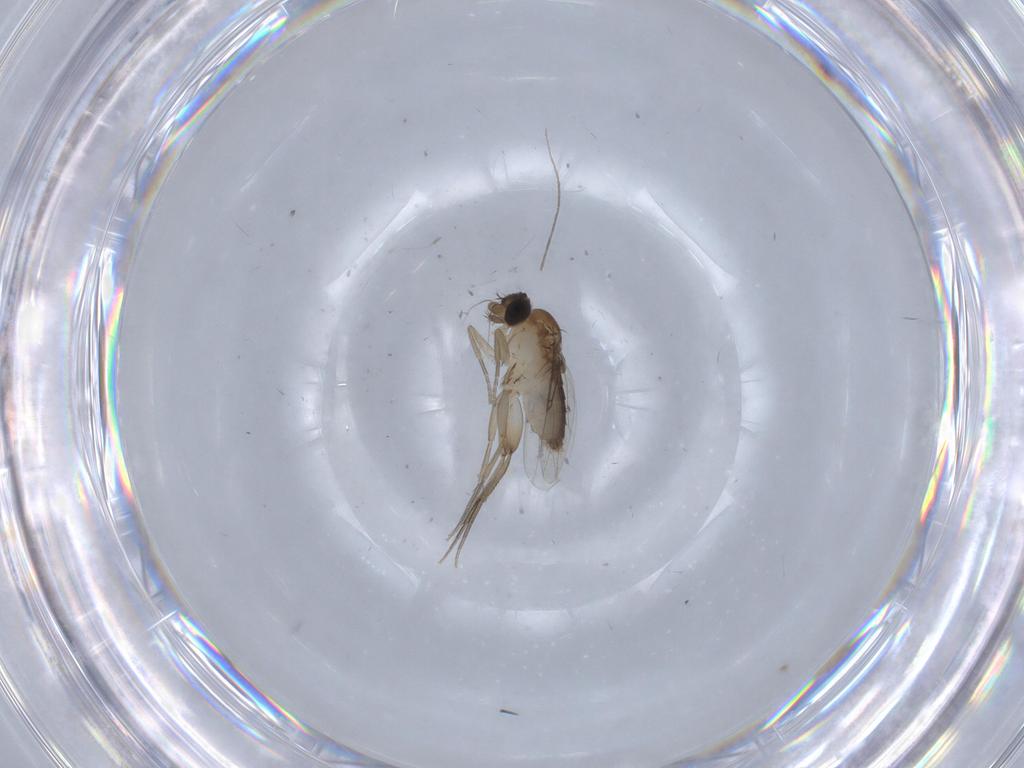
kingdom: Animalia
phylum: Arthropoda
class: Insecta
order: Diptera
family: Phoridae
